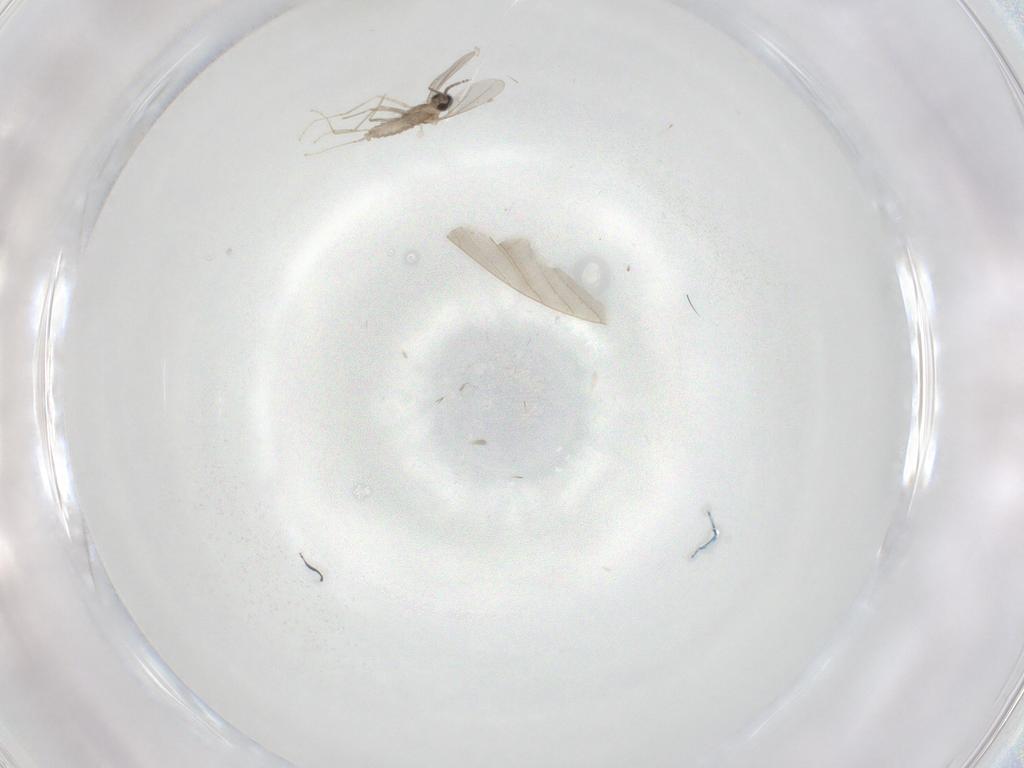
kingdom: Animalia
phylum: Arthropoda
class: Insecta
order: Diptera
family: Cecidomyiidae
